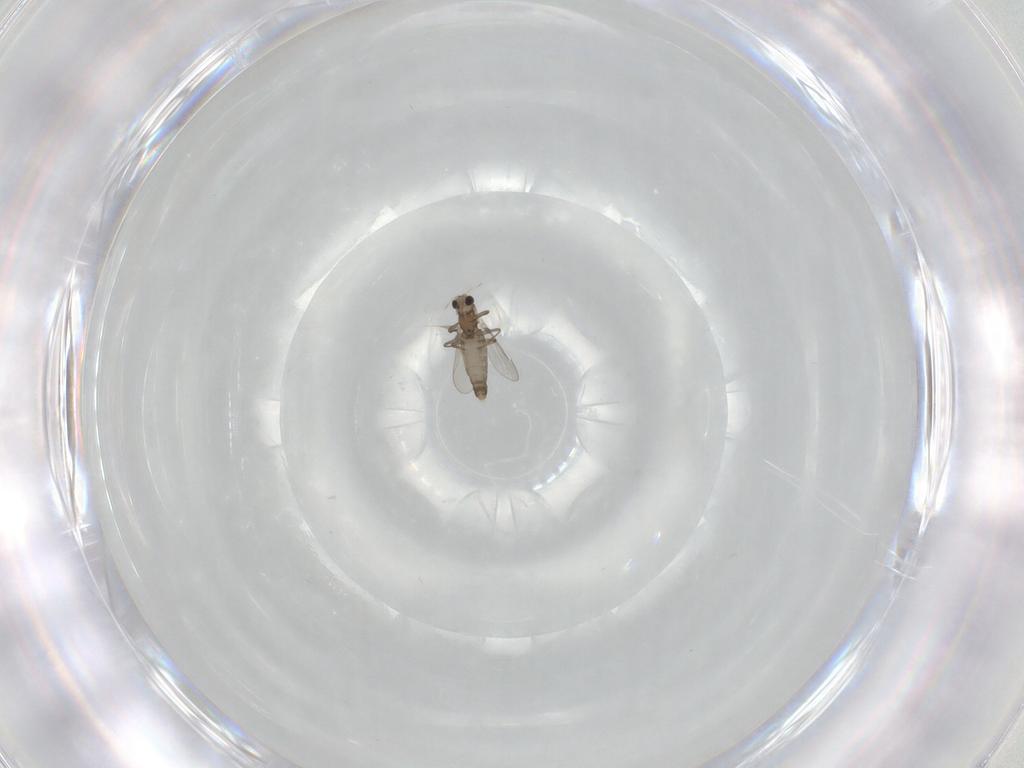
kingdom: Animalia
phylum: Arthropoda
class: Insecta
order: Diptera
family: Chironomidae
